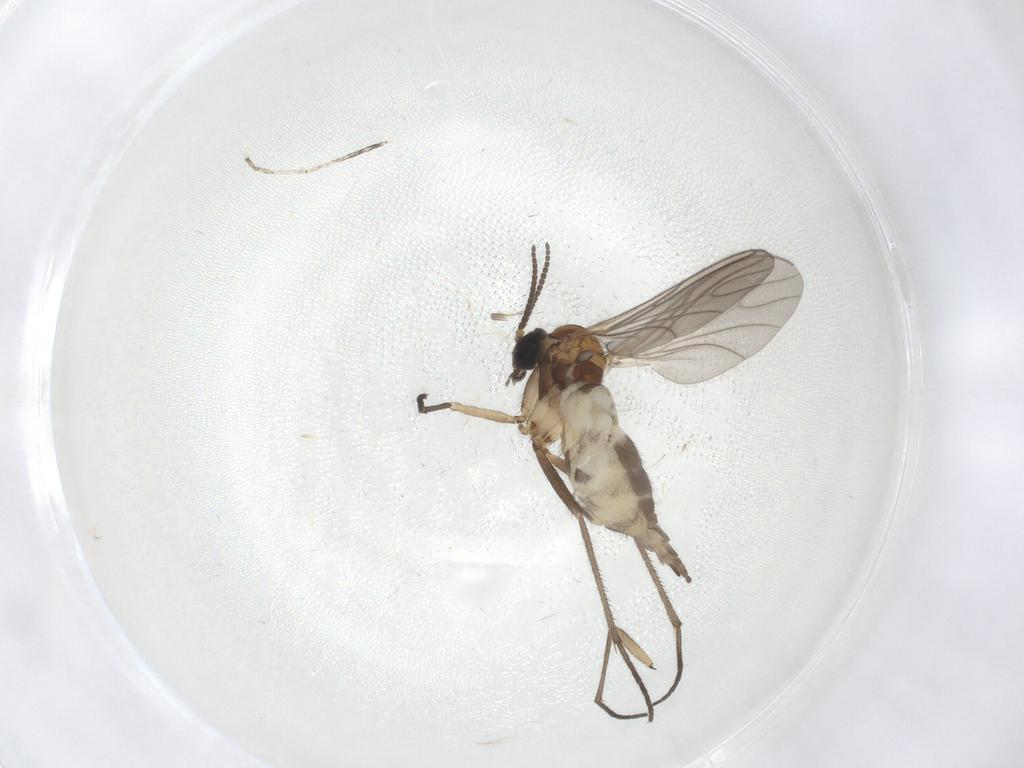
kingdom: Animalia
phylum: Arthropoda
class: Insecta
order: Diptera
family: Sciaridae
